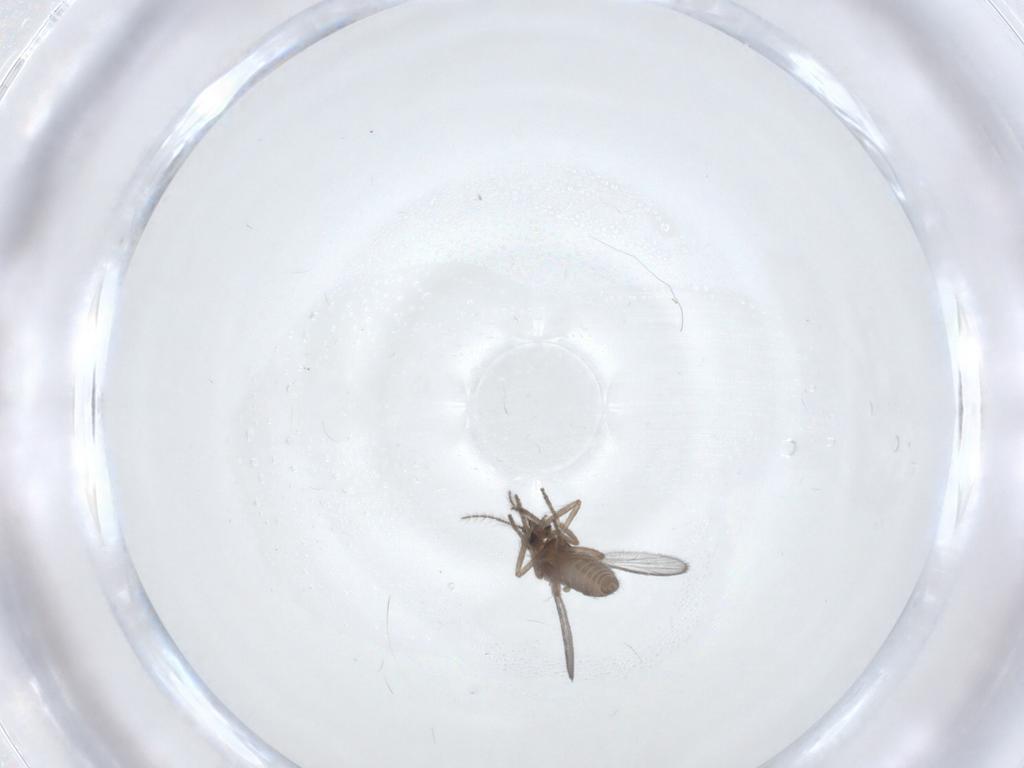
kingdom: Animalia
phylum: Arthropoda
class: Insecta
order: Diptera
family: Ceratopogonidae
